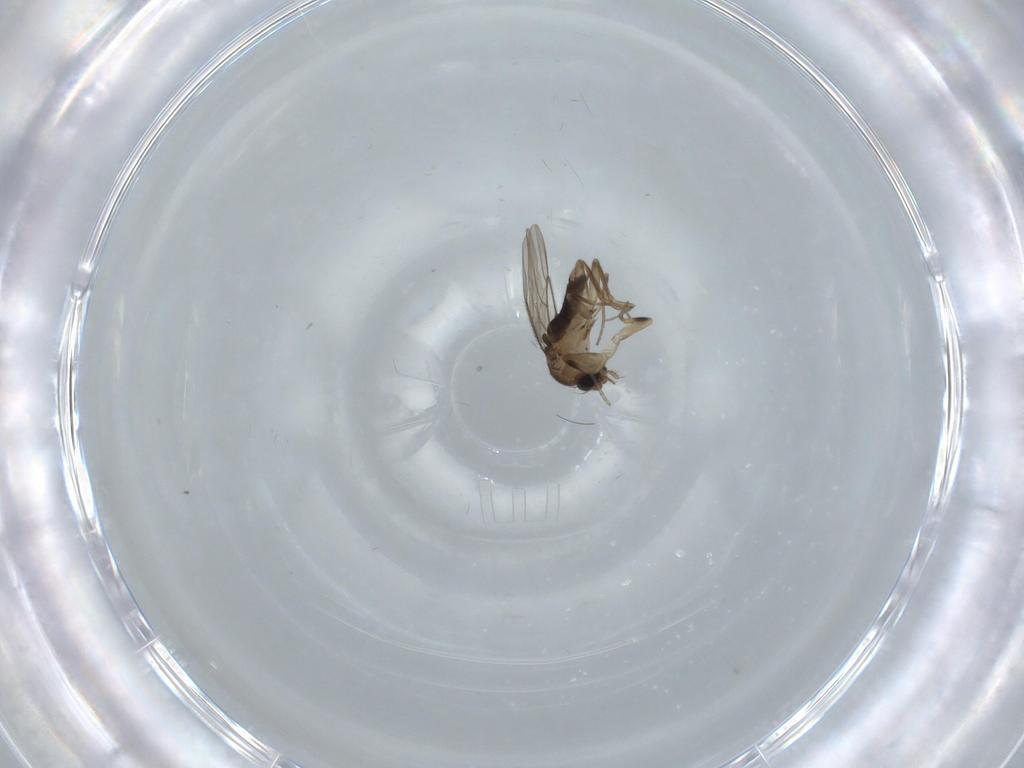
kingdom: Animalia
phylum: Arthropoda
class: Insecta
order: Diptera
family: Phoridae
